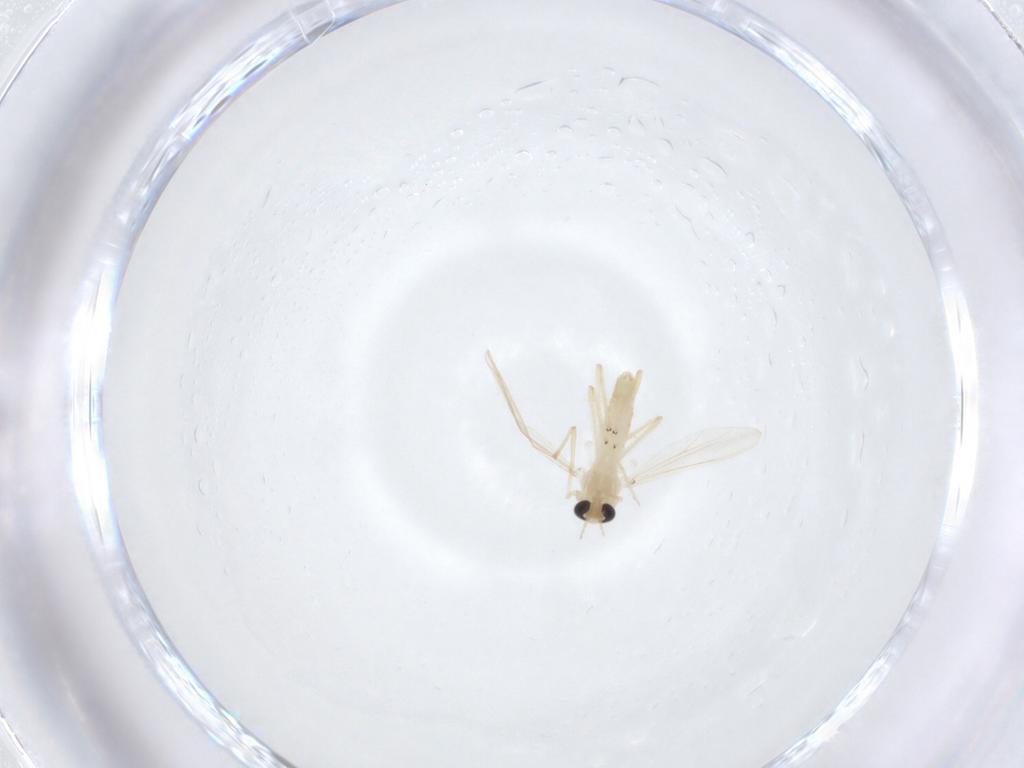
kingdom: Animalia
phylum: Arthropoda
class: Insecta
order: Diptera
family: Chironomidae
